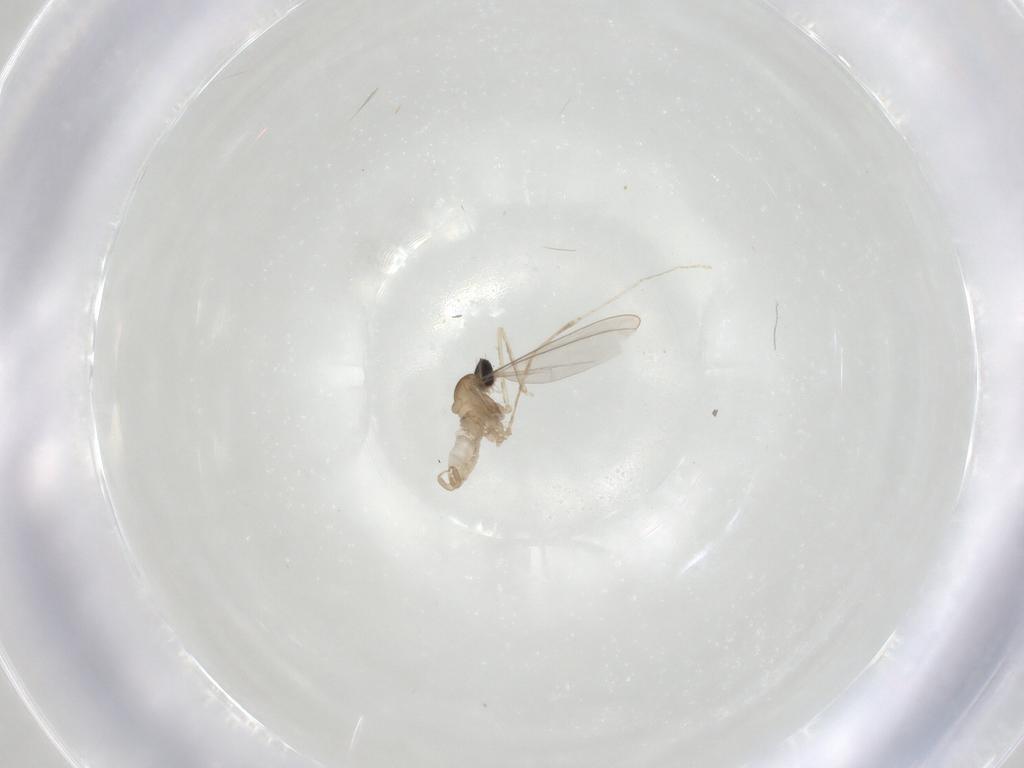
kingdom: Animalia
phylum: Arthropoda
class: Insecta
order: Diptera
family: Cecidomyiidae
